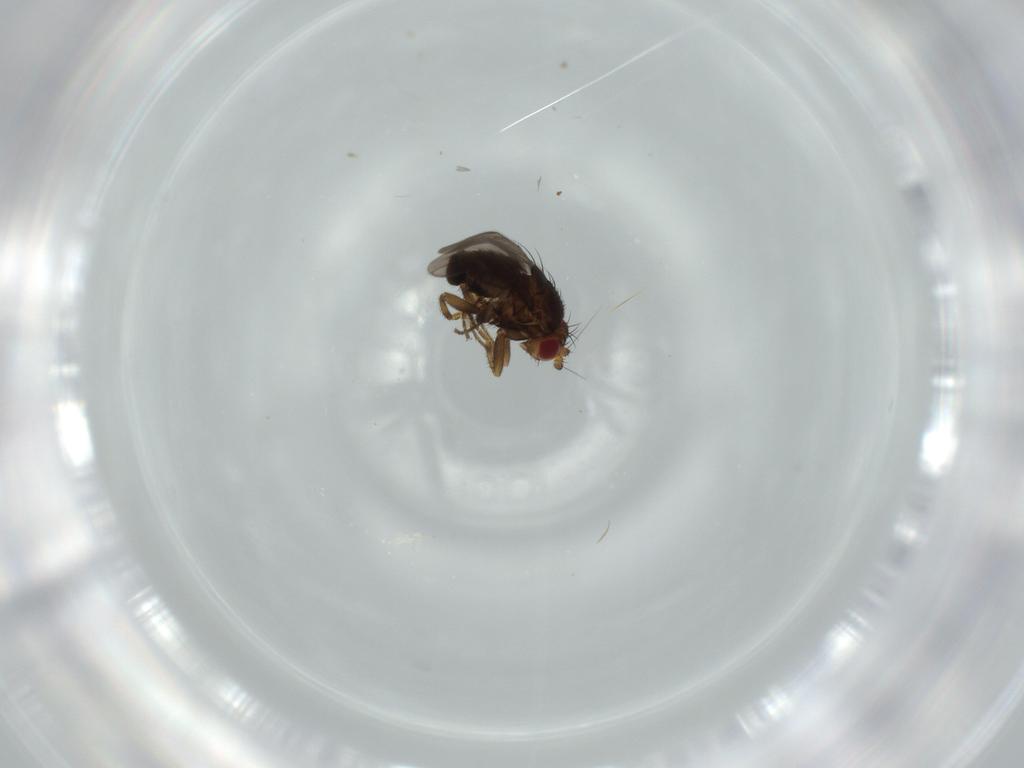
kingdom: Animalia
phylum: Arthropoda
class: Insecta
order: Diptera
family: Sphaeroceridae
